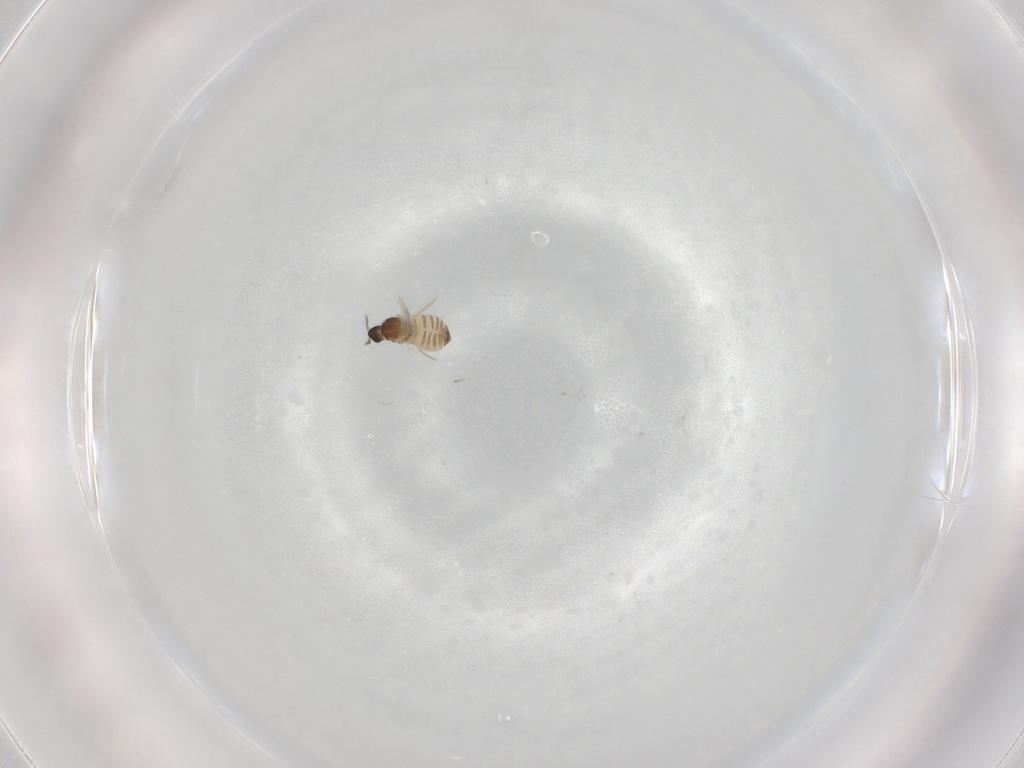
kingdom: Animalia
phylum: Arthropoda
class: Insecta
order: Diptera
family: Cecidomyiidae
